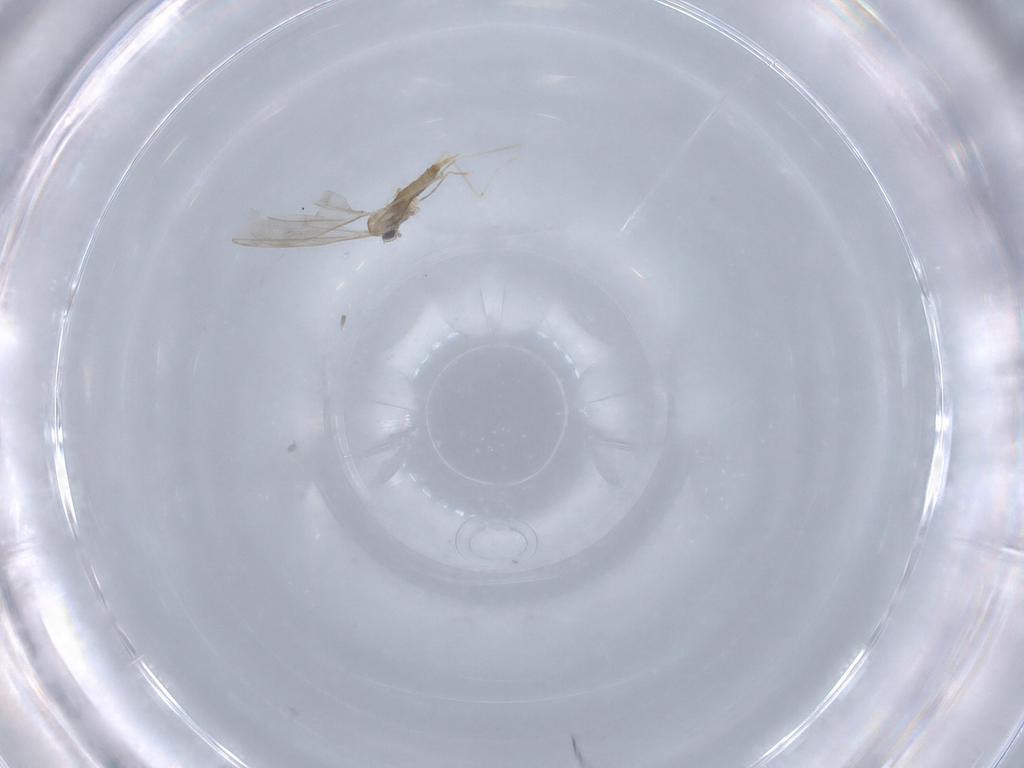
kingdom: Animalia
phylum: Arthropoda
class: Insecta
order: Diptera
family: Cecidomyiidae
